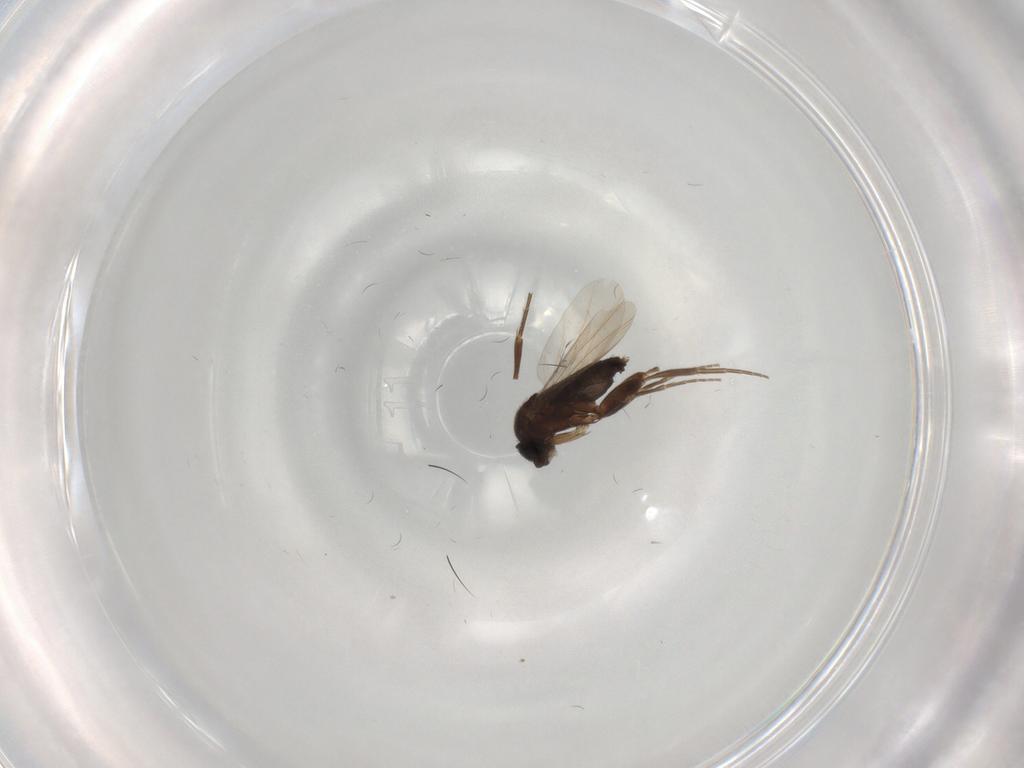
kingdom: Animalia
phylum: Arthropoda
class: Insecta
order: Diptera
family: Phoridae
